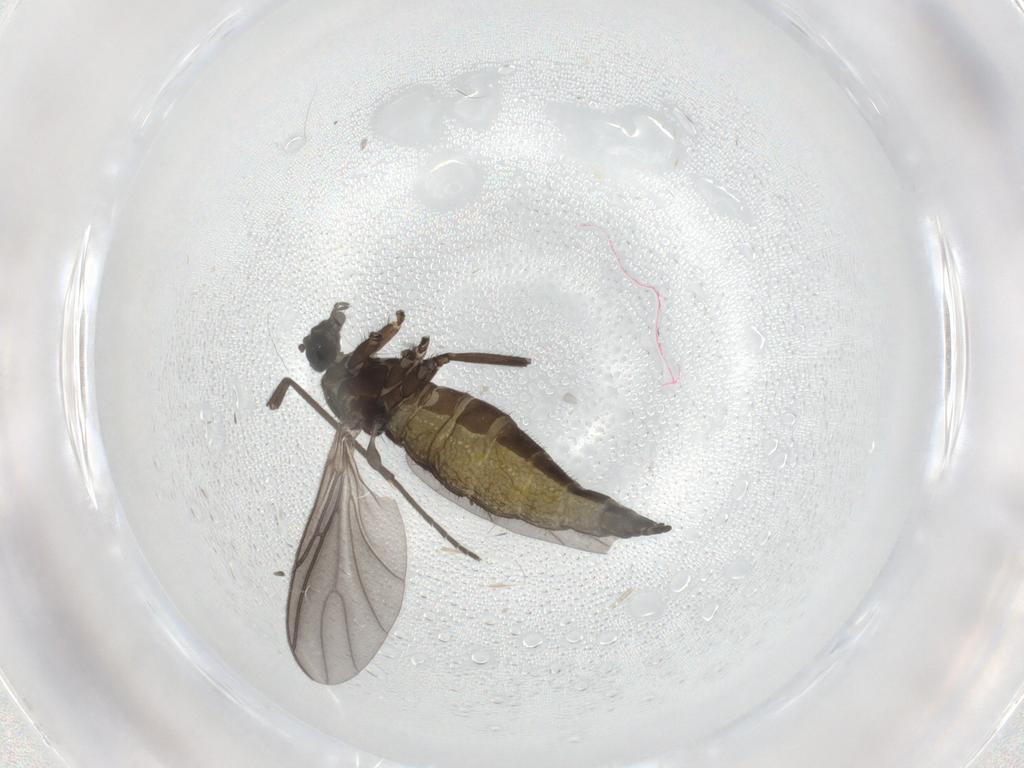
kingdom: Animalia
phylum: Arthropoda
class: Insecta
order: Diptera
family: Sciaridae
